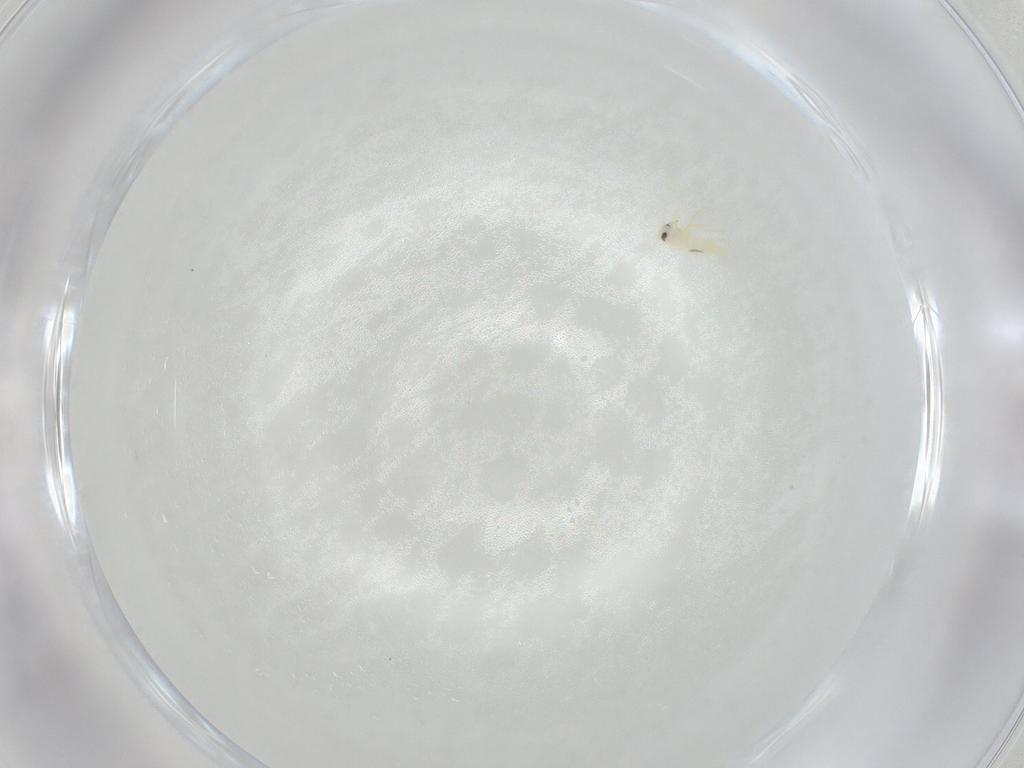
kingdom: Animalia
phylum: Arthropoda
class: Insecta
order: Hemiptera
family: Aleyrodidae
